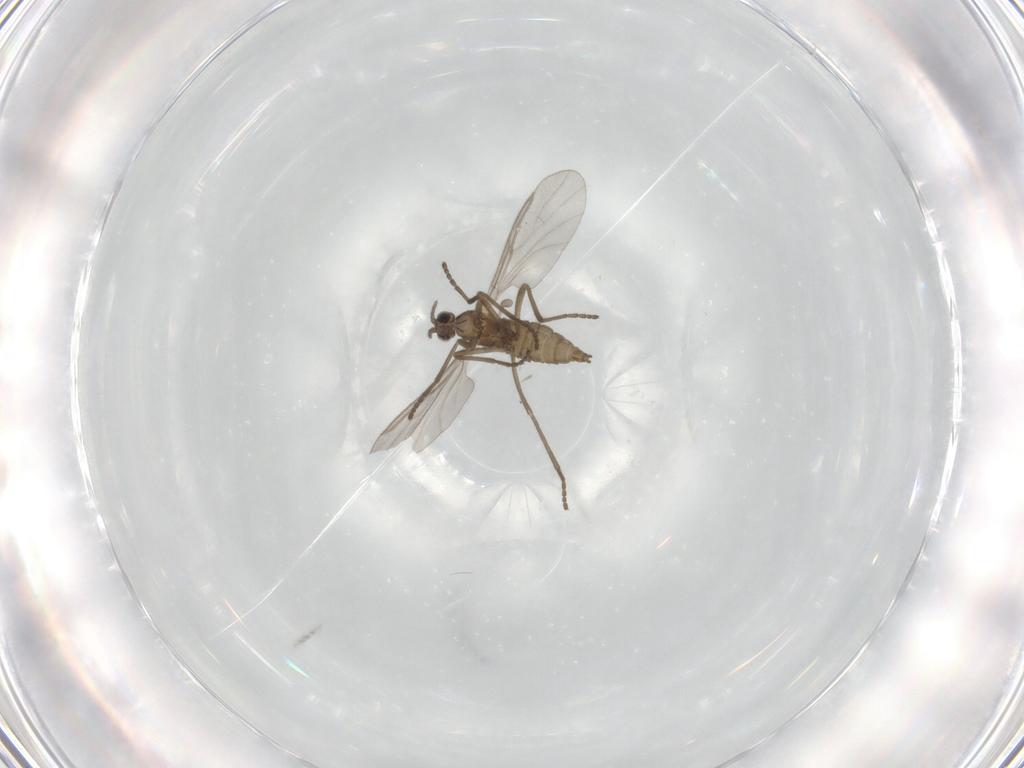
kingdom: Animalia
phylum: Arthropoda
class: Insecta
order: Diptera
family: Cecidomyiidae
